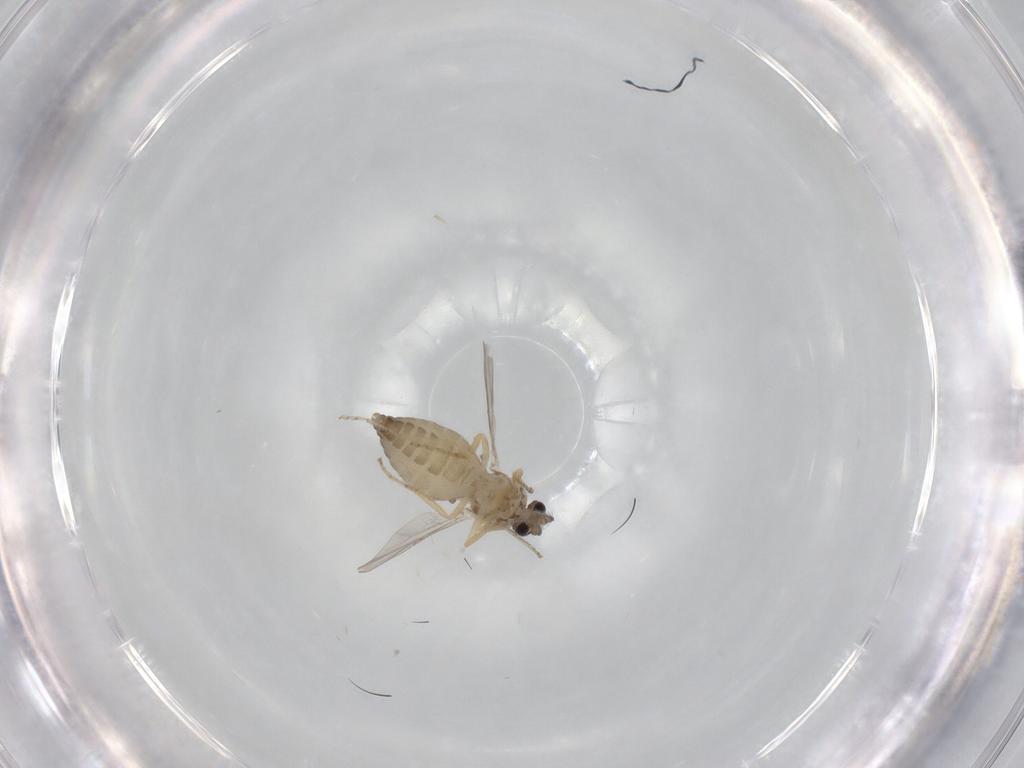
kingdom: Animalia
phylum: Arthropoda
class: Insecta
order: Diptera
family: Ceratopogonidae
